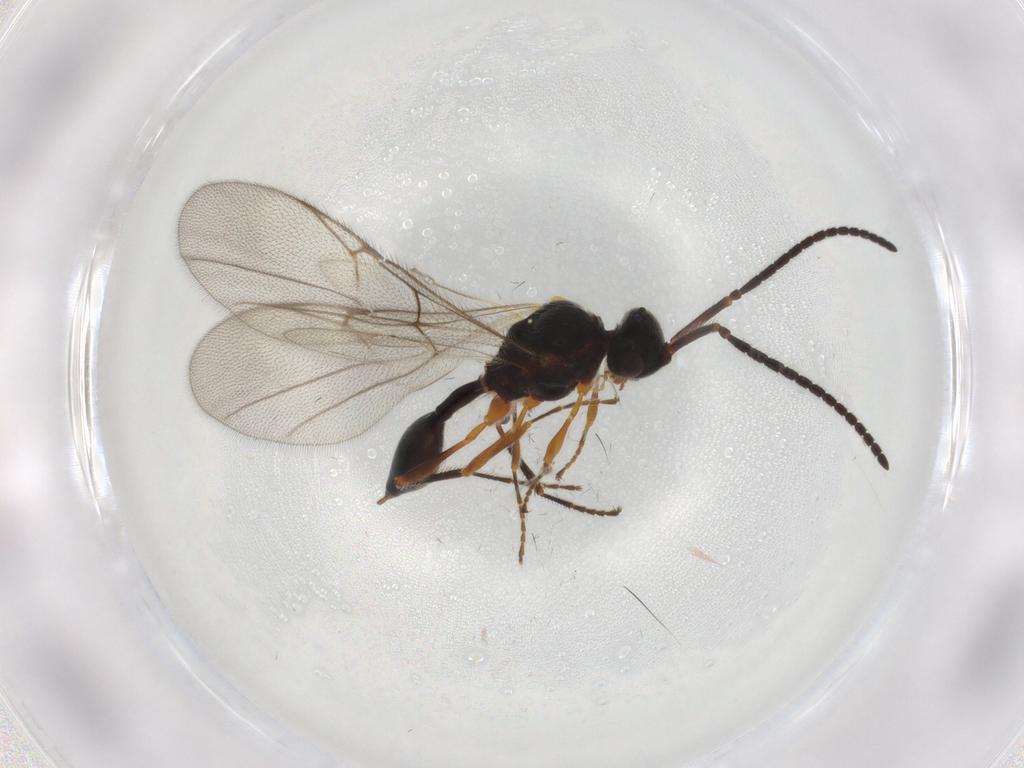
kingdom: Animalia
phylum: Arthropoda
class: Insecta
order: Hymenoptera
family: Diapriidae
